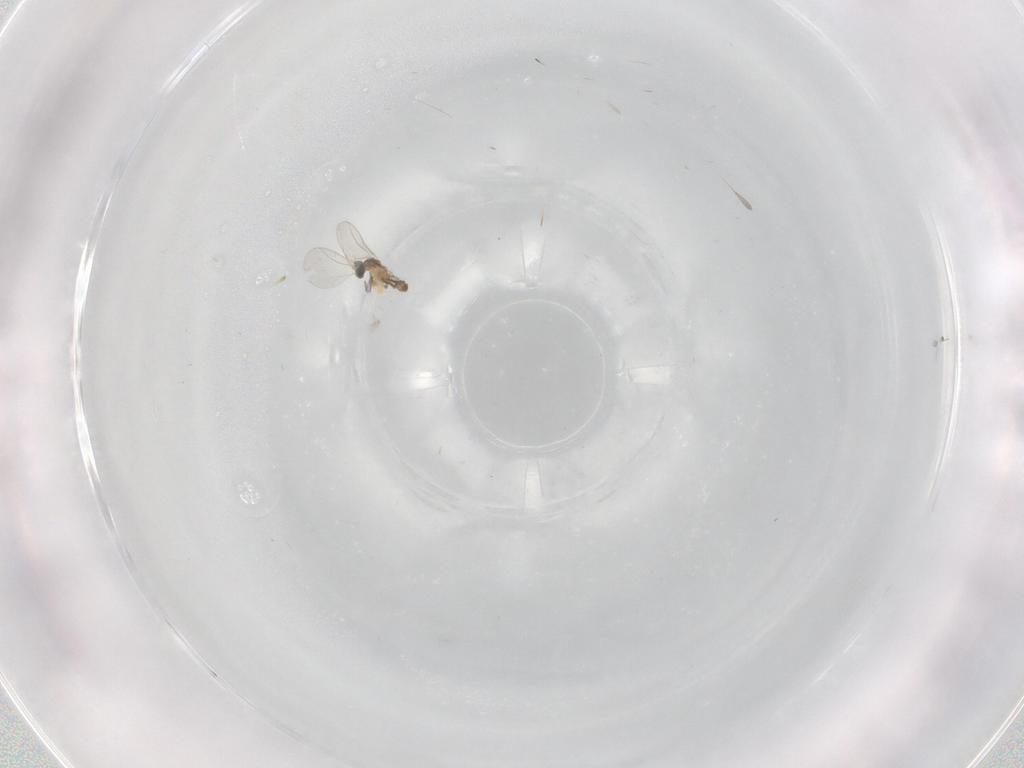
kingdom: Animalia
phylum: Arthropoda
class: Insecta
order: Diptera
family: Cecidomyiidae
